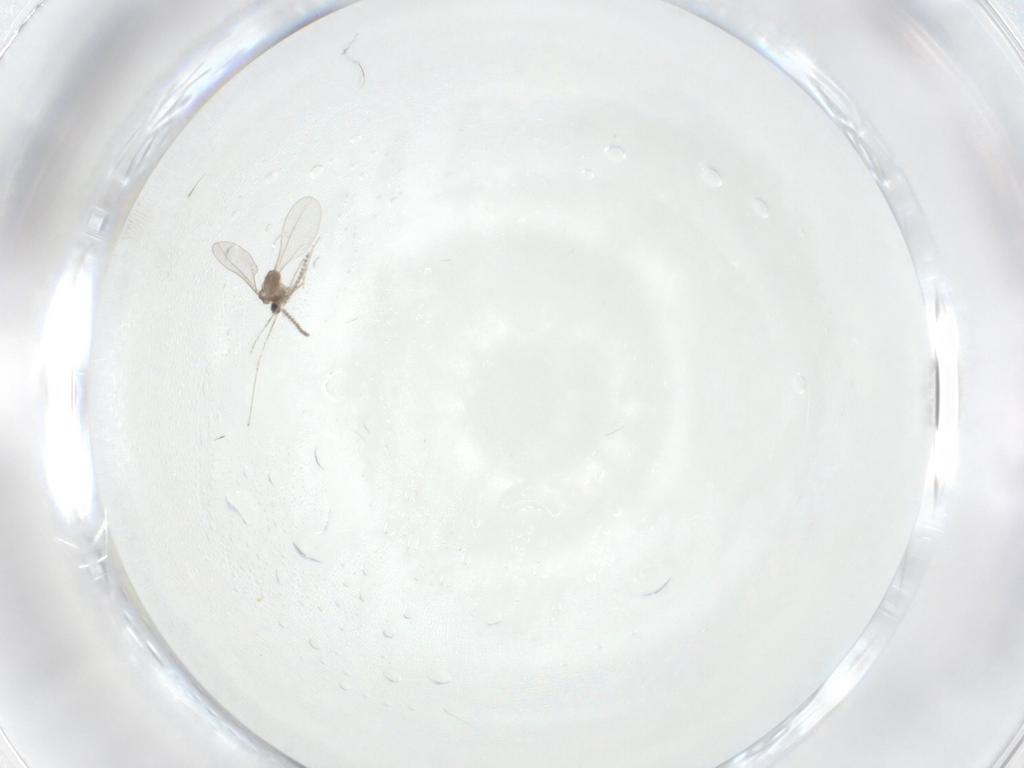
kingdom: Animalia
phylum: Arthropoda
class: Insecta
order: Diptera
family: Cecidomyiidae
